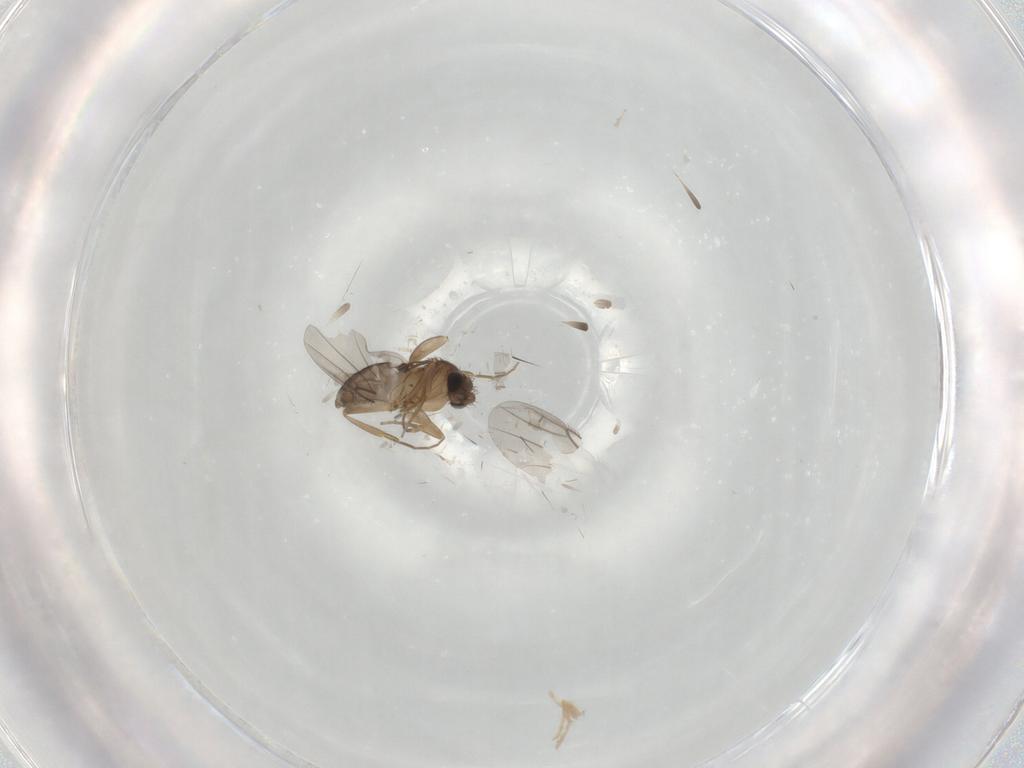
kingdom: Animalia
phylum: Arthropoda
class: Insecta
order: Diptera
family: Phoridae
